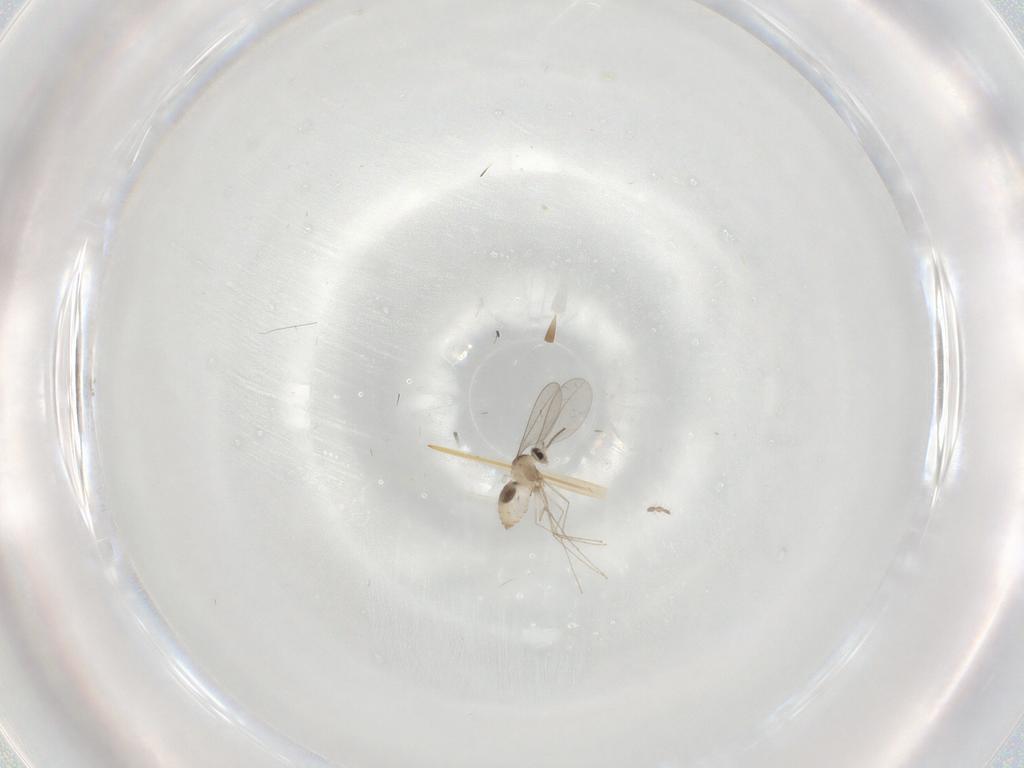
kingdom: Animalia
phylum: Arthropoda
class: Insecta
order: Diptera
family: Cecidomyiidae
